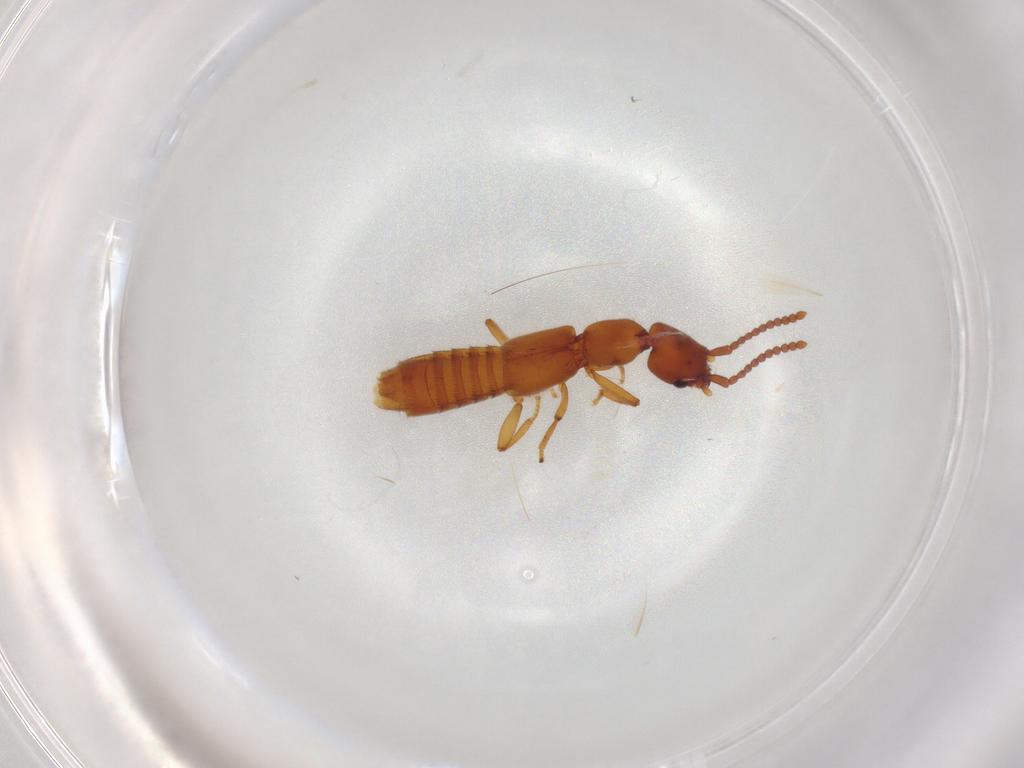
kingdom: Animalia
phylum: Arthropoda
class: Insecta
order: Coleoptera
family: Staphylinidae
